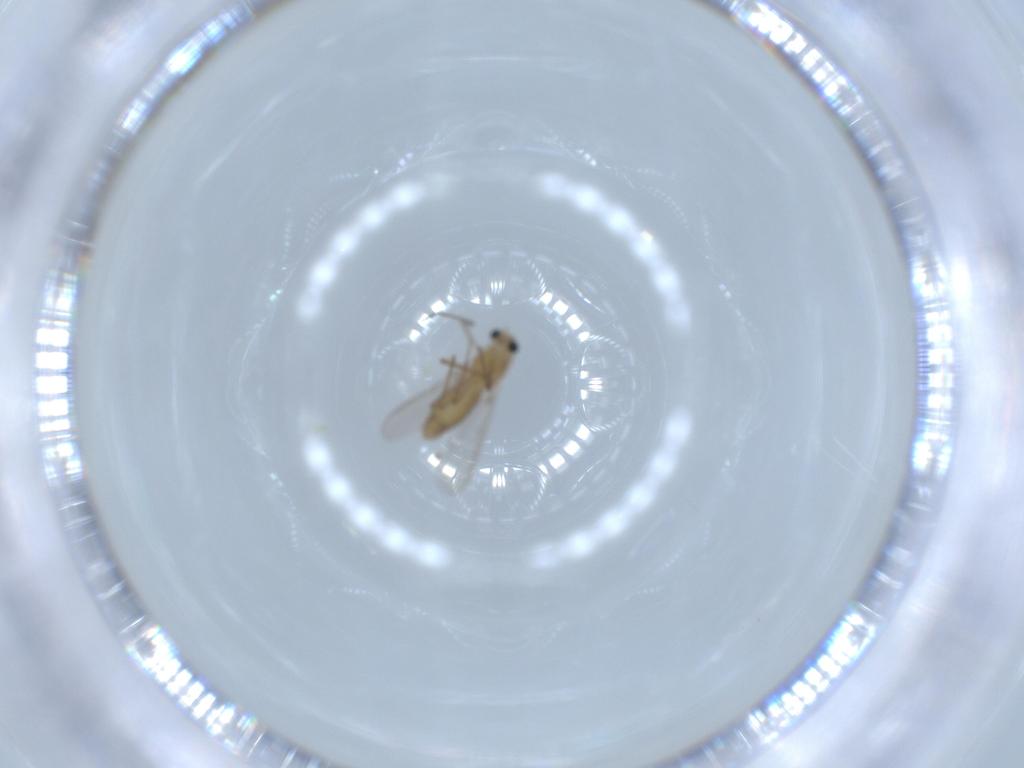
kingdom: Animalia
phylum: Arthropoda
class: Insecta
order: Diptera
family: Chironomidae
